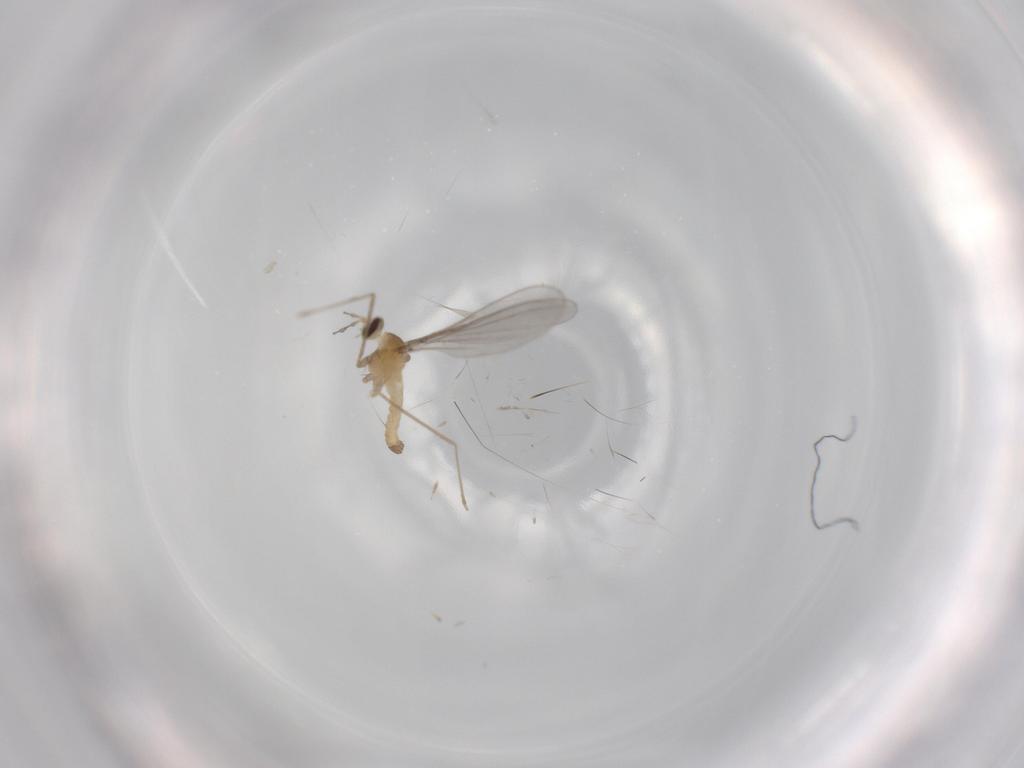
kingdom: Animalia
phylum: Arthropoda
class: Insecta
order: Diptera
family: Cecidomyiidae
